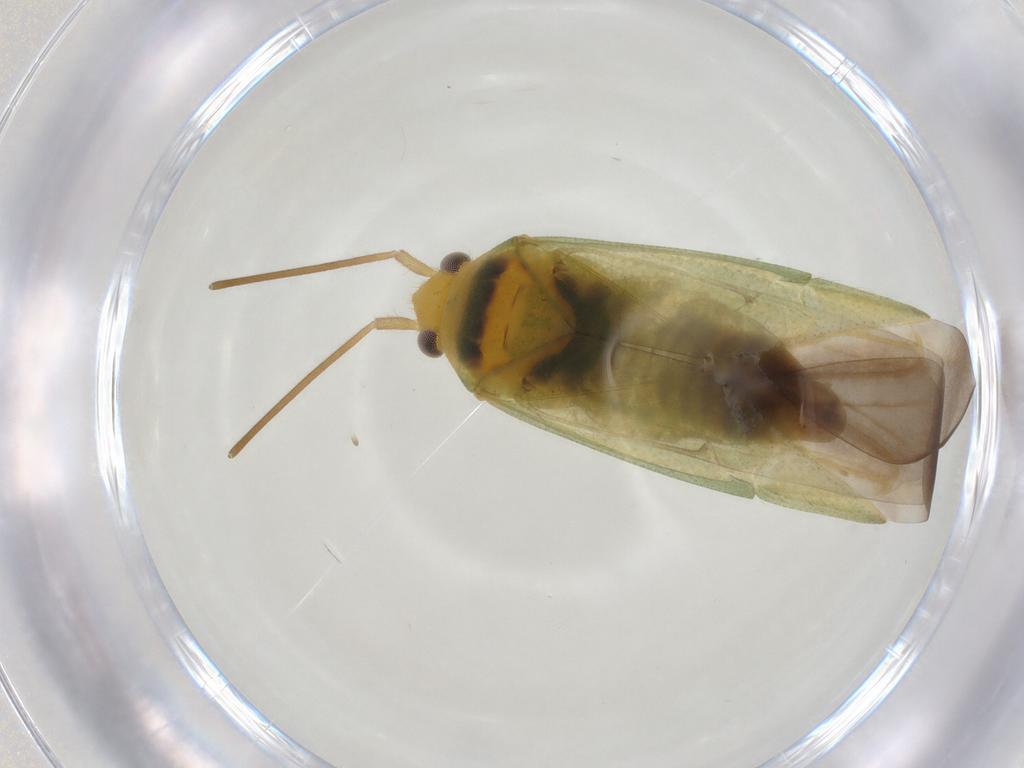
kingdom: Animalia
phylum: Arthropoda
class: Insecta
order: Hemiptera
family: Miridae
